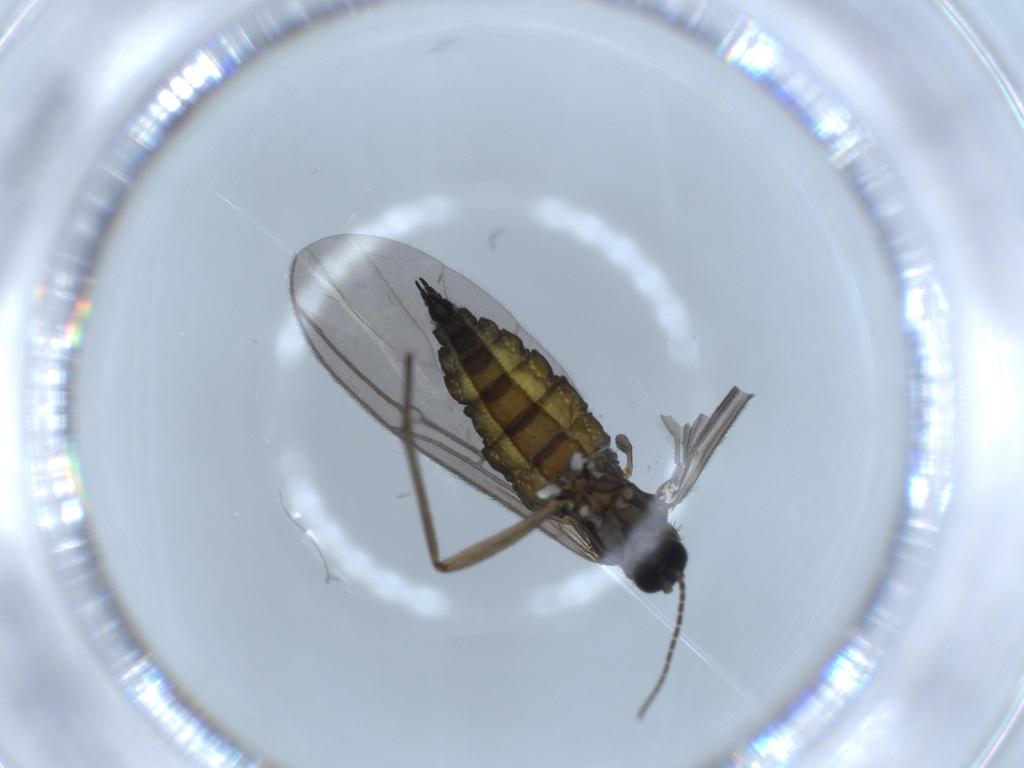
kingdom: Animalia
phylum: Arthropoda
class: Insecta
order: Diptera
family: Sciaridae
